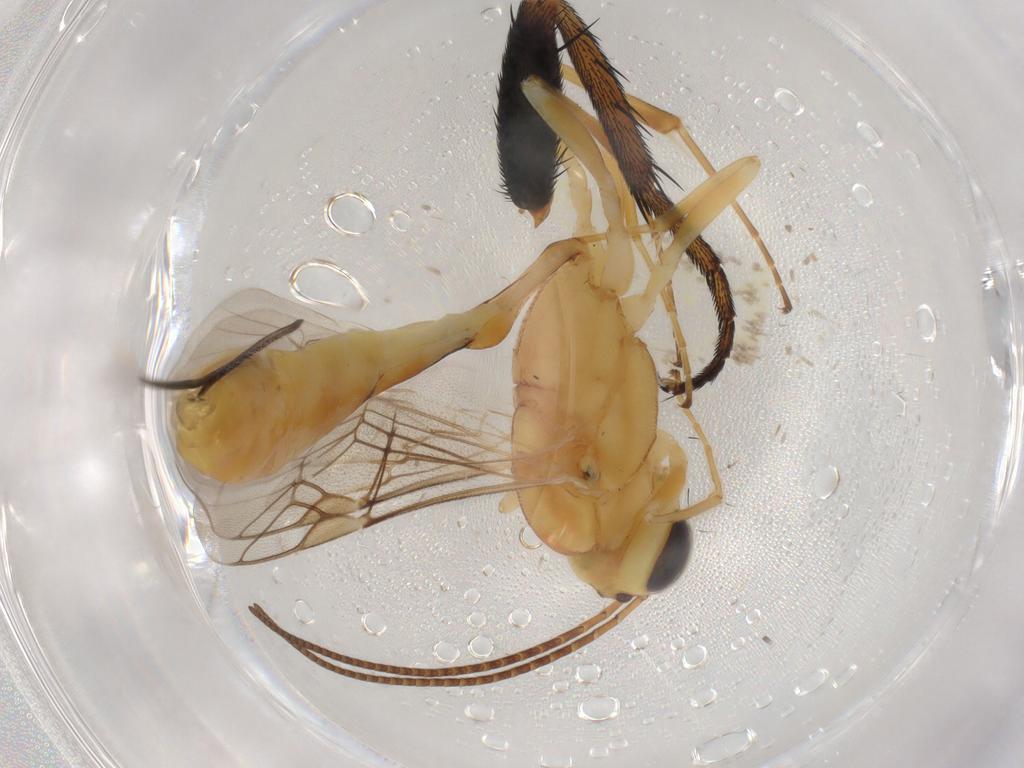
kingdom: Animalia
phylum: Arthropoda
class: Insecta
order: Hymenoptera
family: Ichneumonidae
